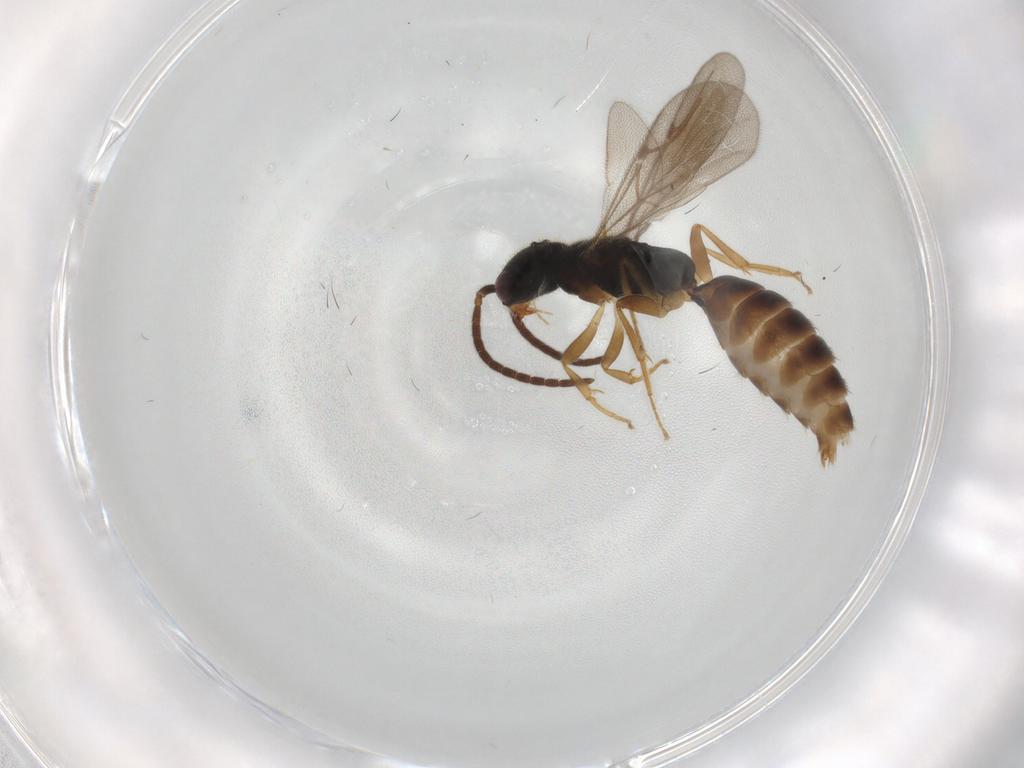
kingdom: Animalia
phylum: Arthropoda
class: Insecta
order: Hymenoptera
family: Bethylidae
